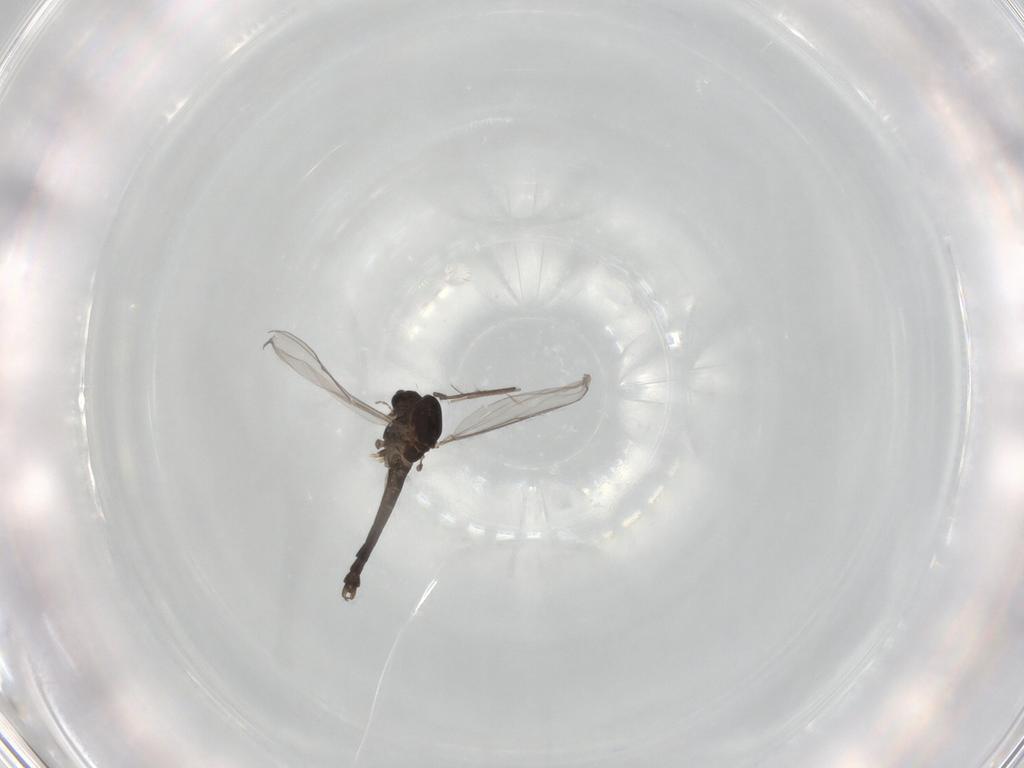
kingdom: Animalia
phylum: Arthropoda
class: Insecta
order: Diptera
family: Chironomidae
